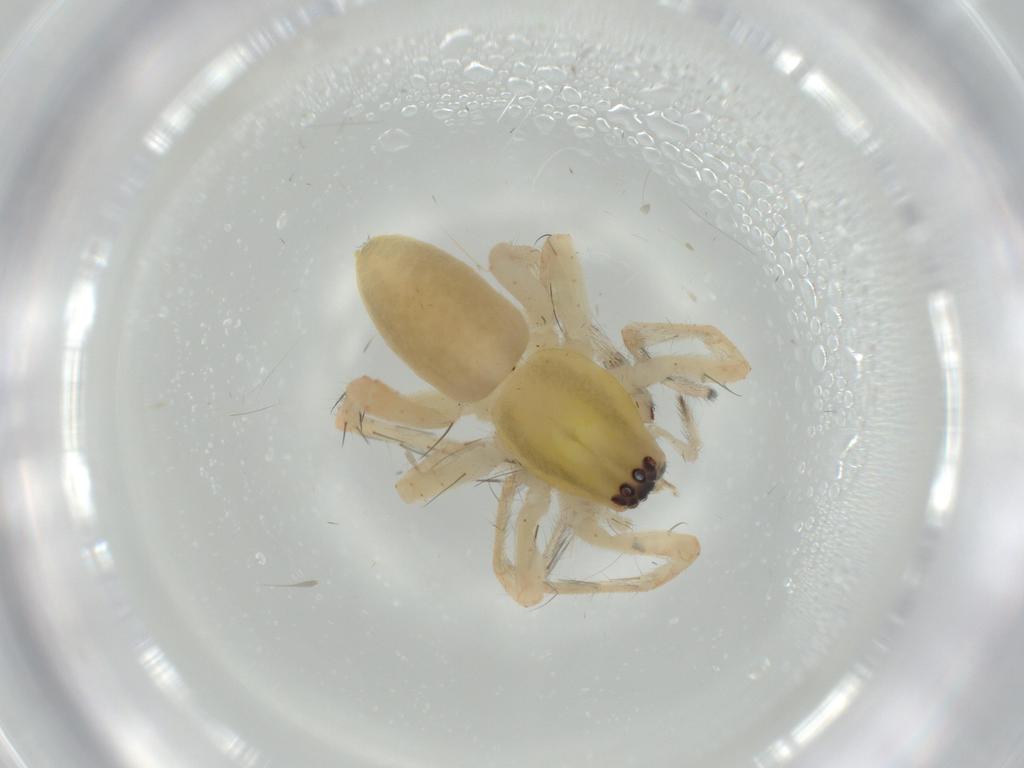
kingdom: Animalia
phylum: Arthropoda
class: Arachnida
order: Araneae
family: Anyphaenidae
